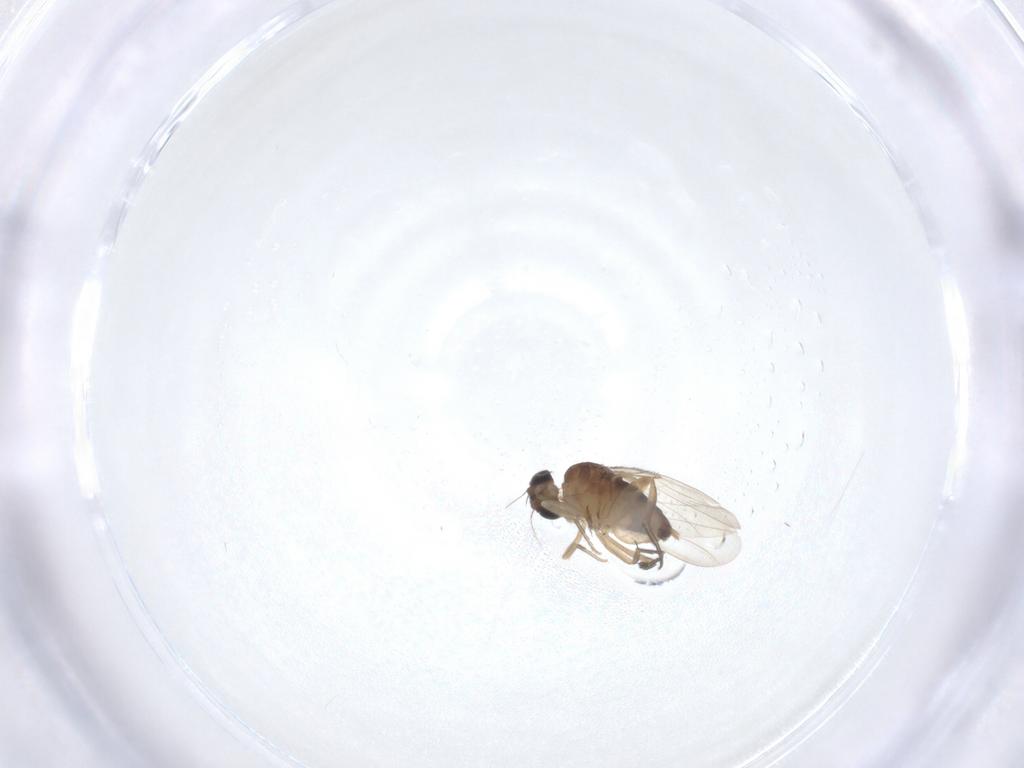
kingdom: Animalia
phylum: Arthropoda
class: Insecta
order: Diptera
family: Phoridae
